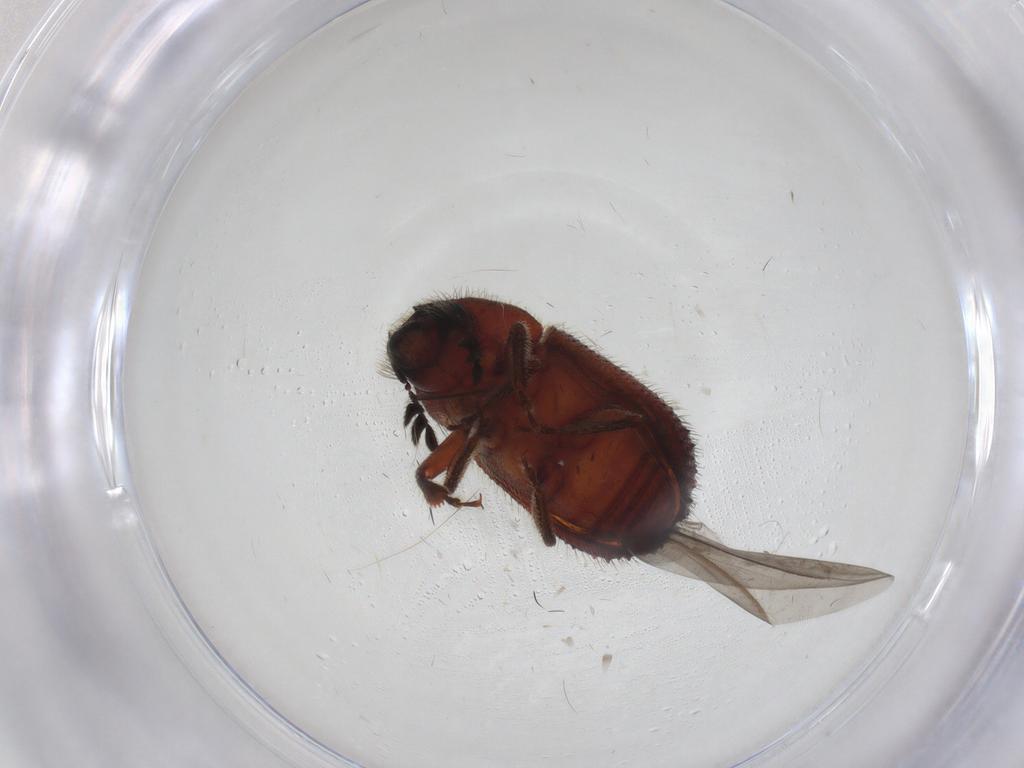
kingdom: Animalia
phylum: Arthropoda
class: Insecta
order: Coleoptera
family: Curculionidae
